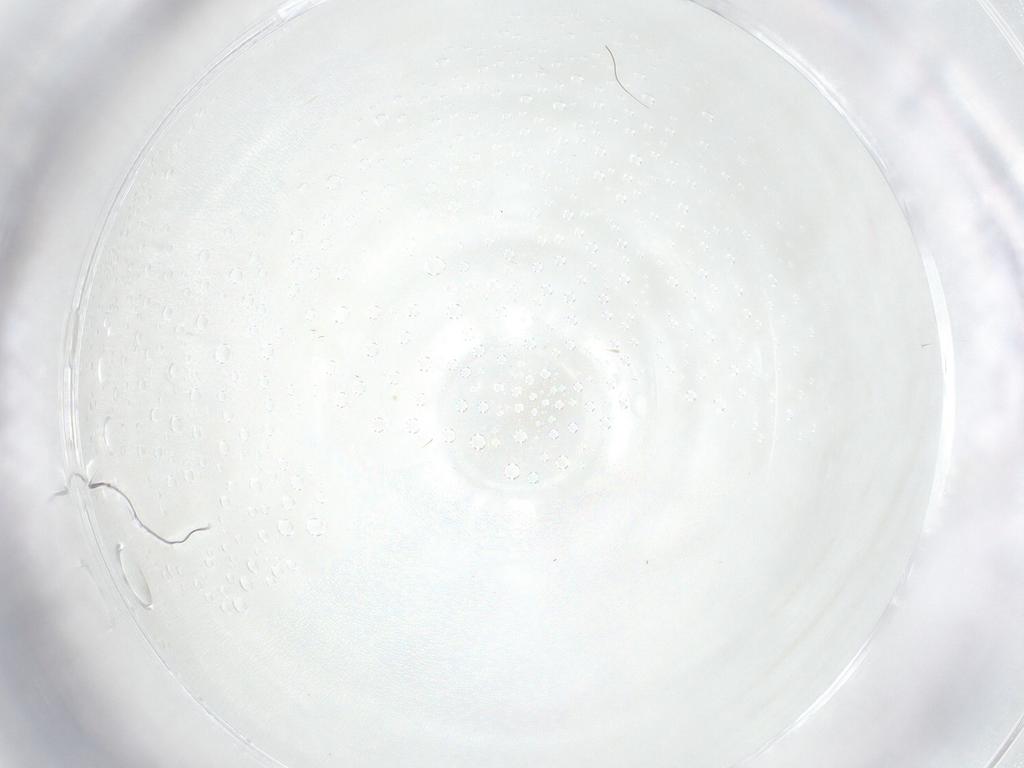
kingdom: Animalia
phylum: Arthropoda
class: Insecta
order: Diptera
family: Chironomidae
